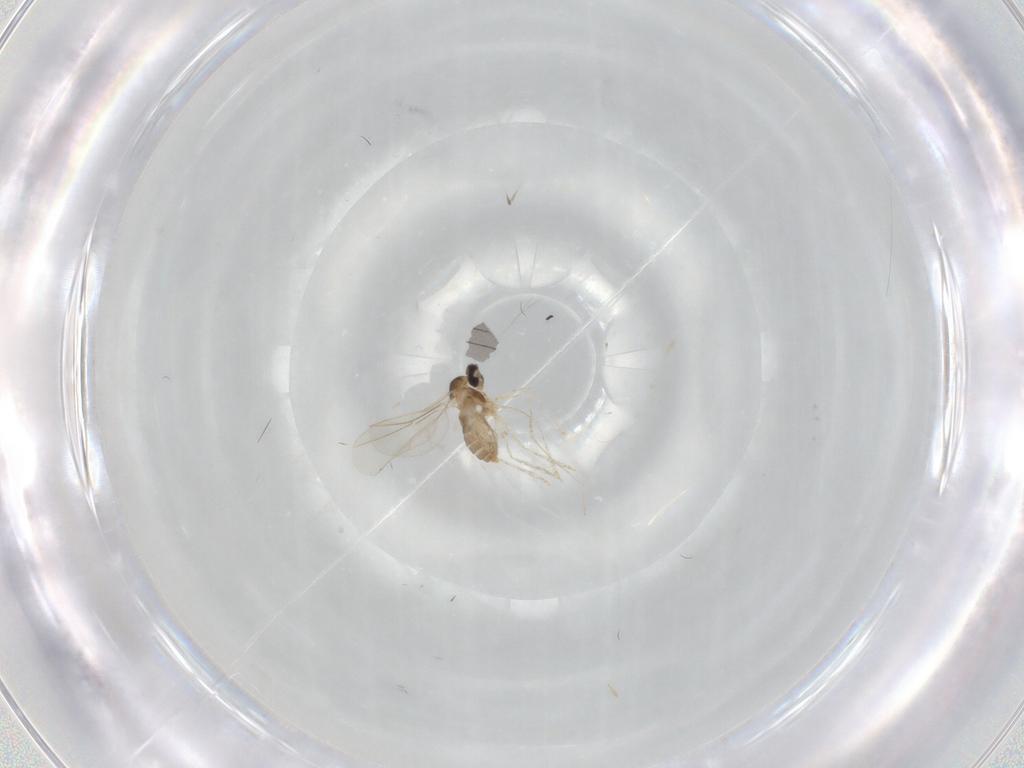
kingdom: Animalia
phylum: Arthropoda
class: Insecta
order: Diptera
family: Cecidomyiidae
